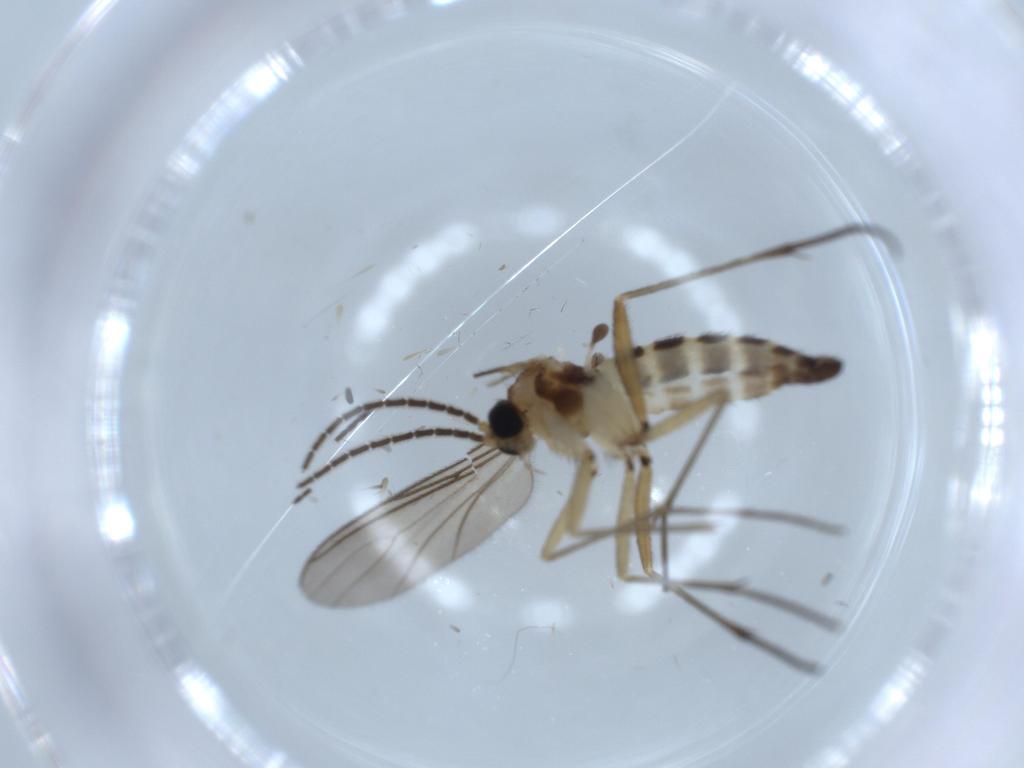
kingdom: Animalia
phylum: Arthropoda
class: Insecta
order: Diptera
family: Sciaridae
